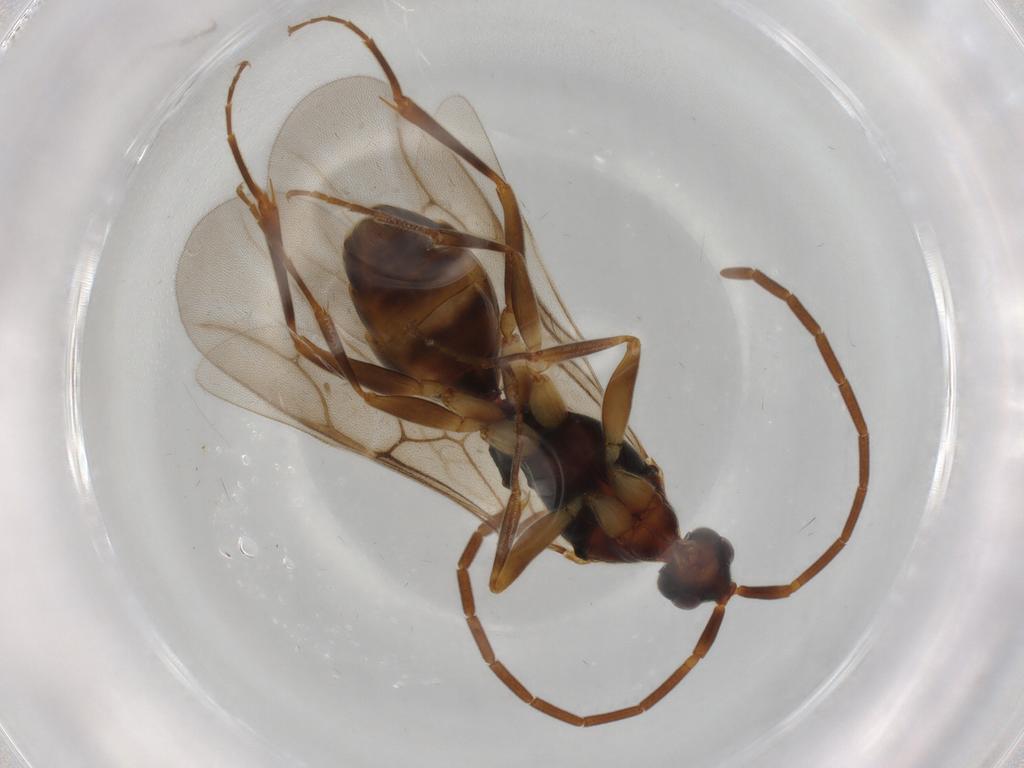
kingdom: Animalia
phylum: Arthropoda
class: Insecta
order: Hymenoptera
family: Embolemidae
